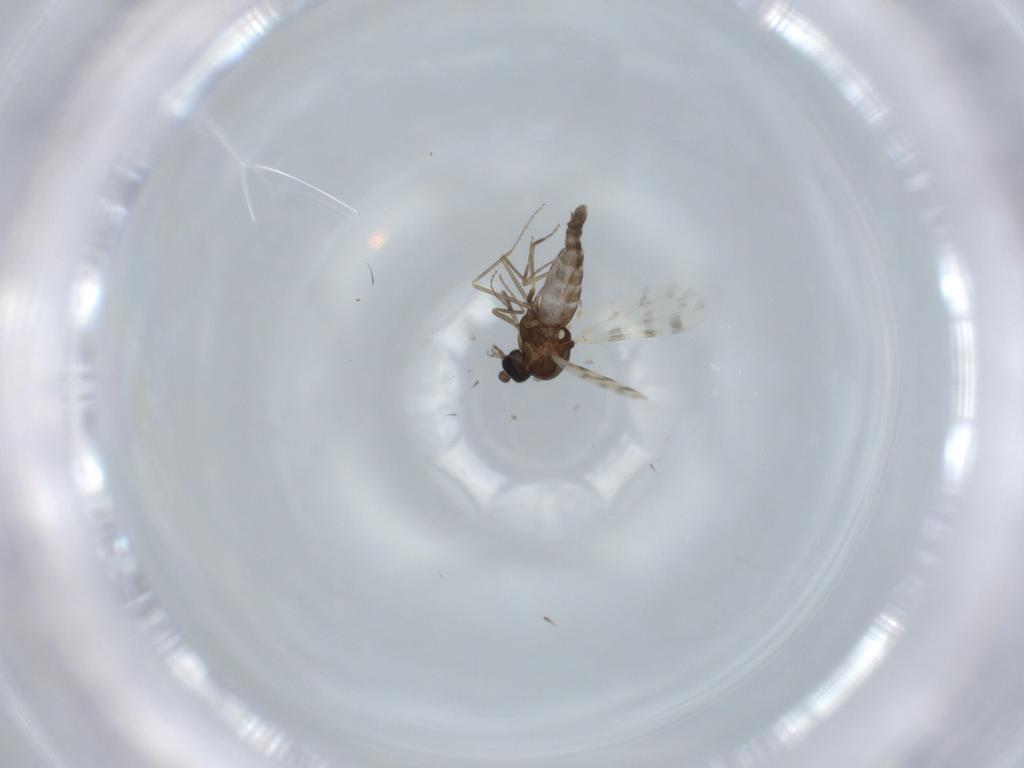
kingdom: Animalia
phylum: Arthropoda
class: Insecta
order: Diptera
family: Ceratopogonidae
